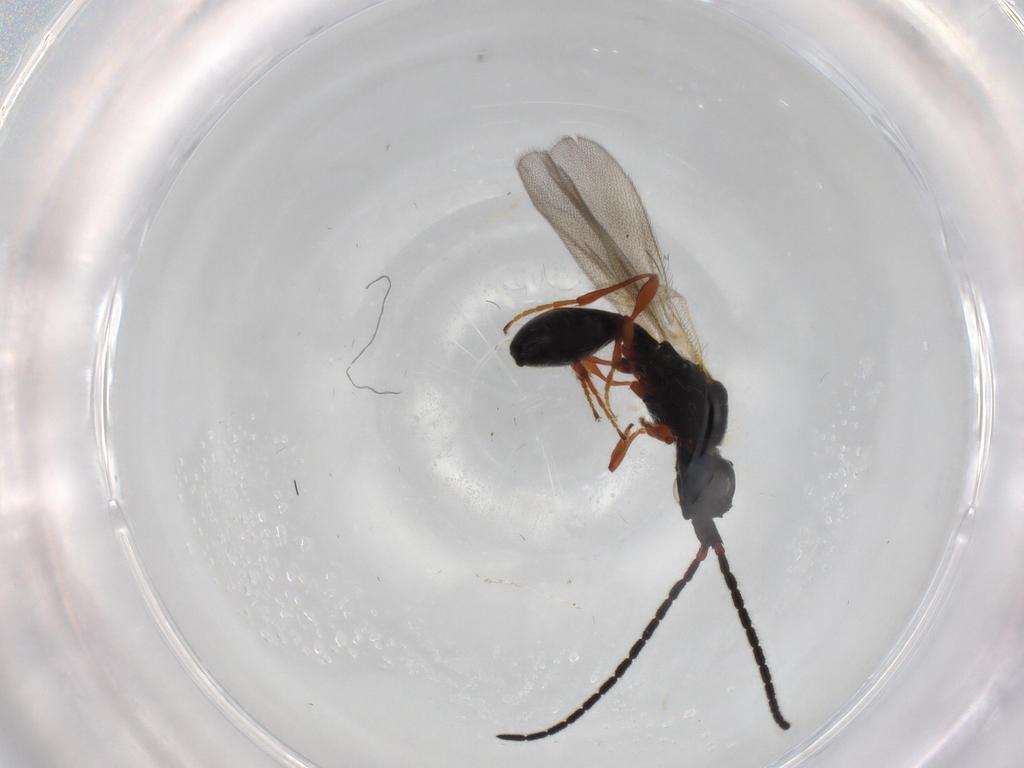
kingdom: Animalia
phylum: Arthropoda
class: Insecta
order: Hymenoptera
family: Diapriidae
